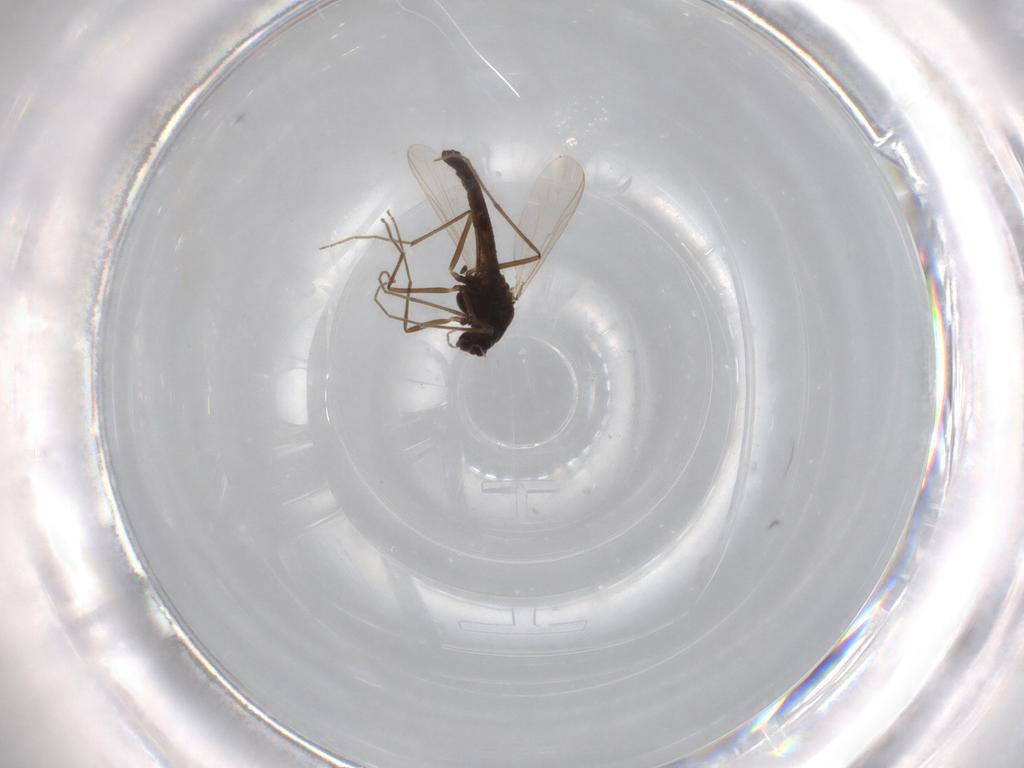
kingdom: Animalia
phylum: Arthropoda
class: Insecta
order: Diptera
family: Chironomidae
